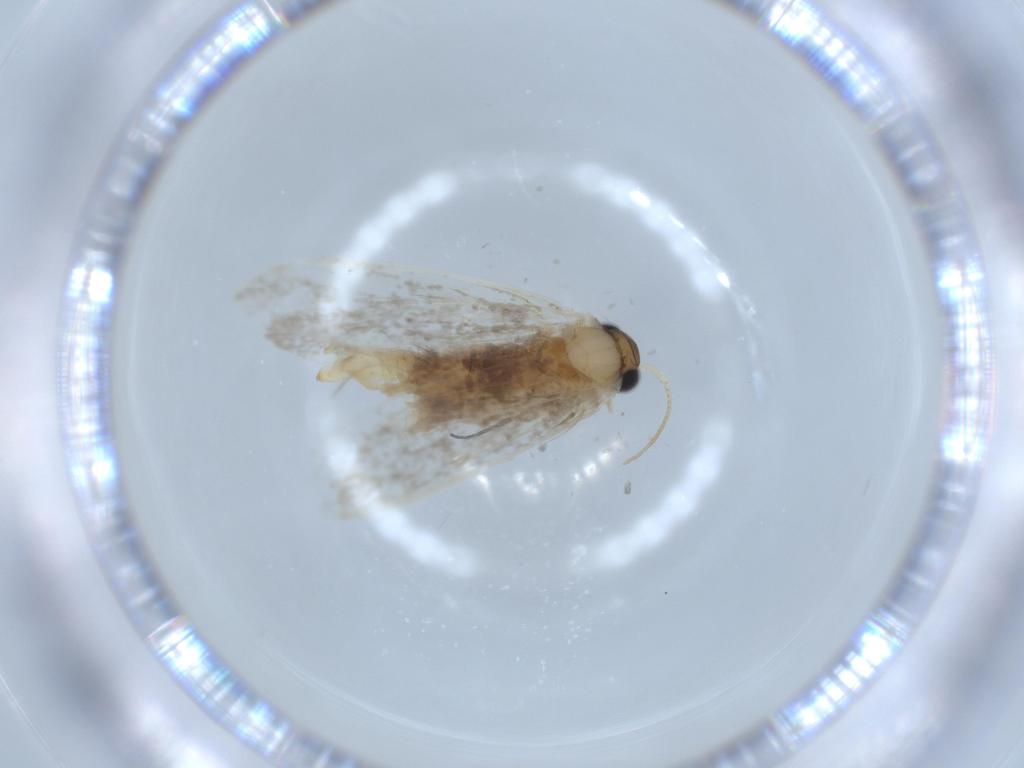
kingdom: Animalia
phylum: Arthropoda
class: Insecta
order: Lepidoptera
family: Tineidae
